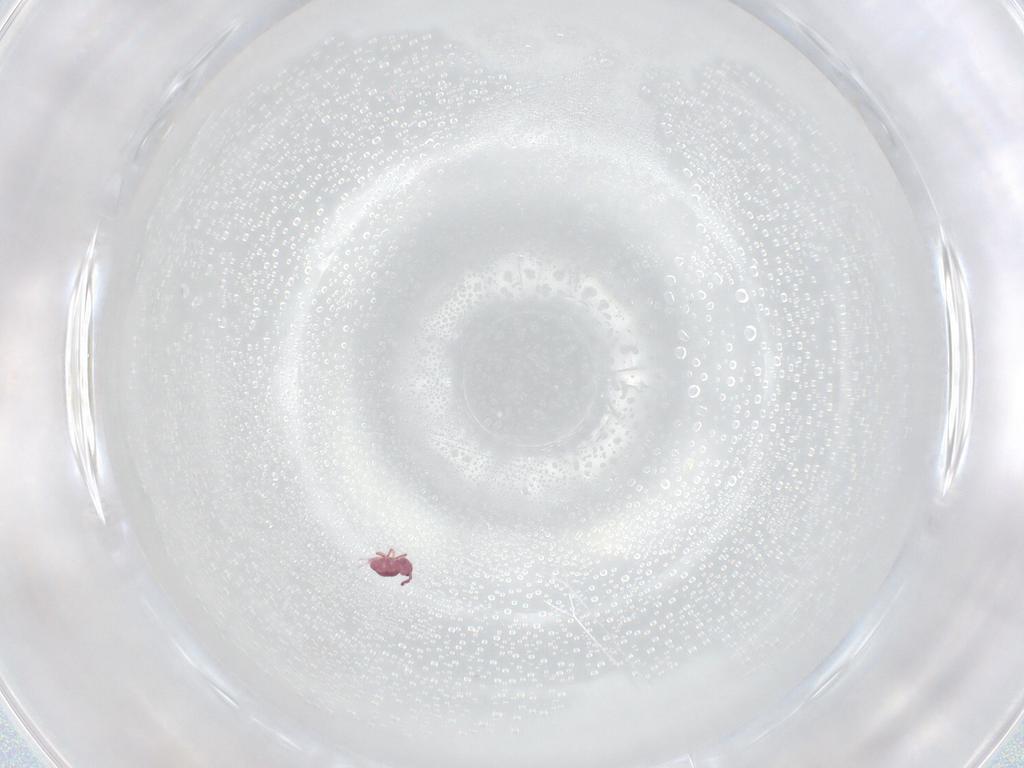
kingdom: Animalia
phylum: Arthropoda
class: Collembola
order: Symphypleona
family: Sminthurididae
